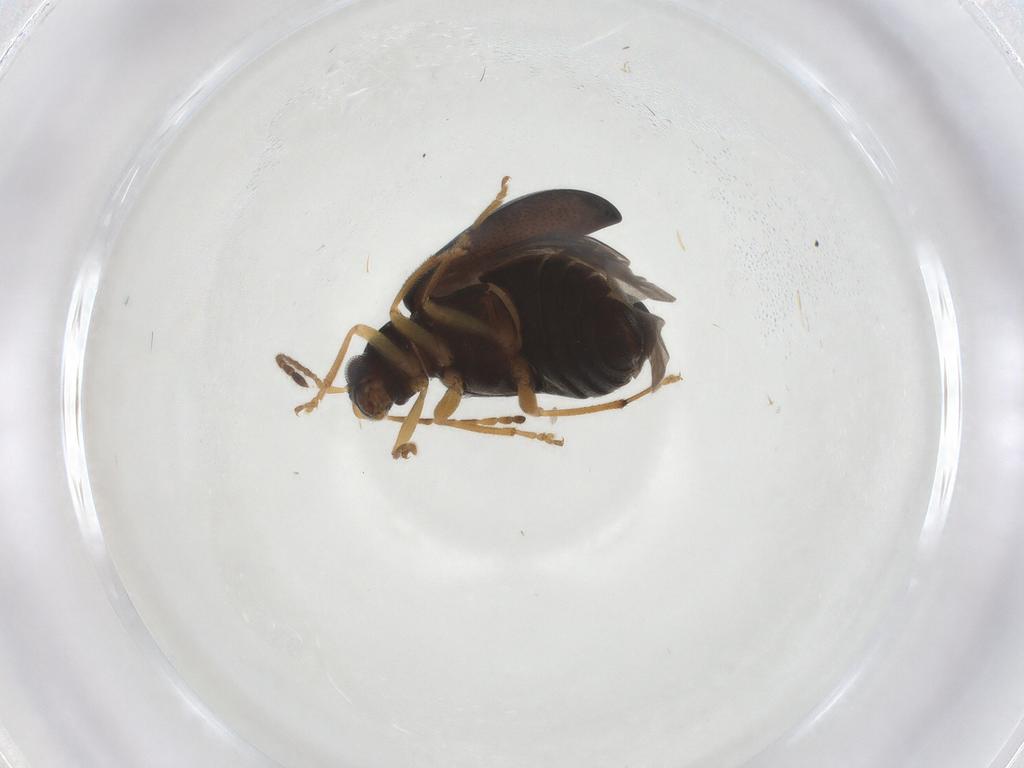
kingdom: Animalia
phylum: Arthropoda
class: Insecta
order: Coleoptera
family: Chrysomelidae
